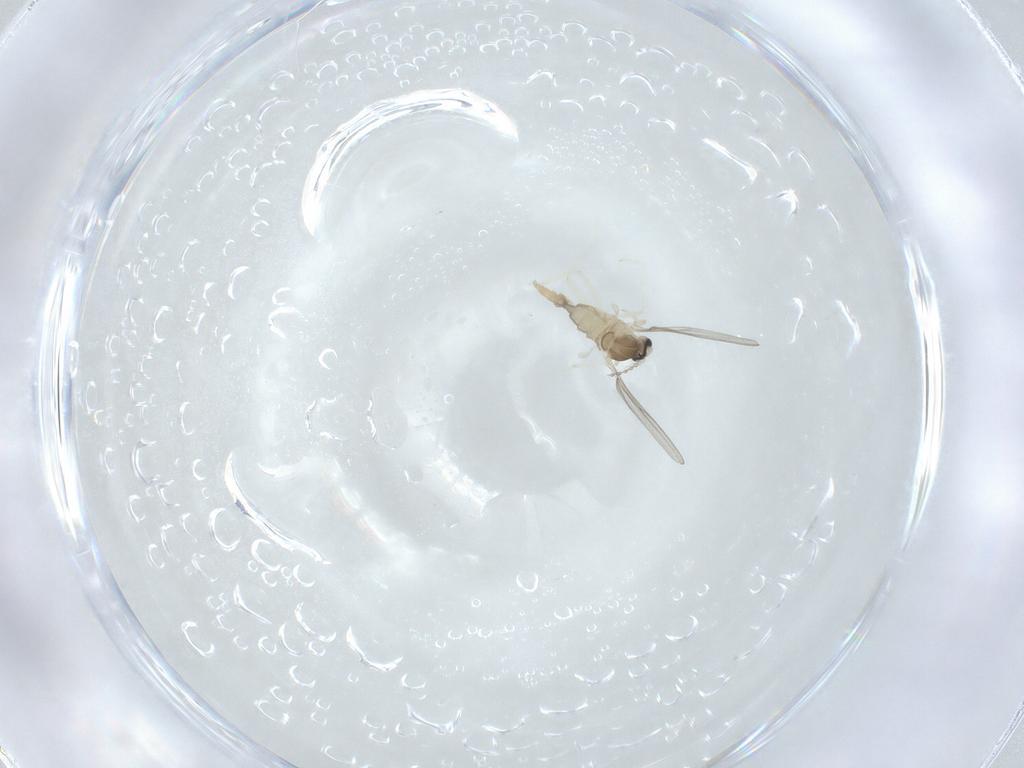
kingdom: Animalia
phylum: Arthropoda
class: Insecta
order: Diptera
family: Cecidomyiidae
